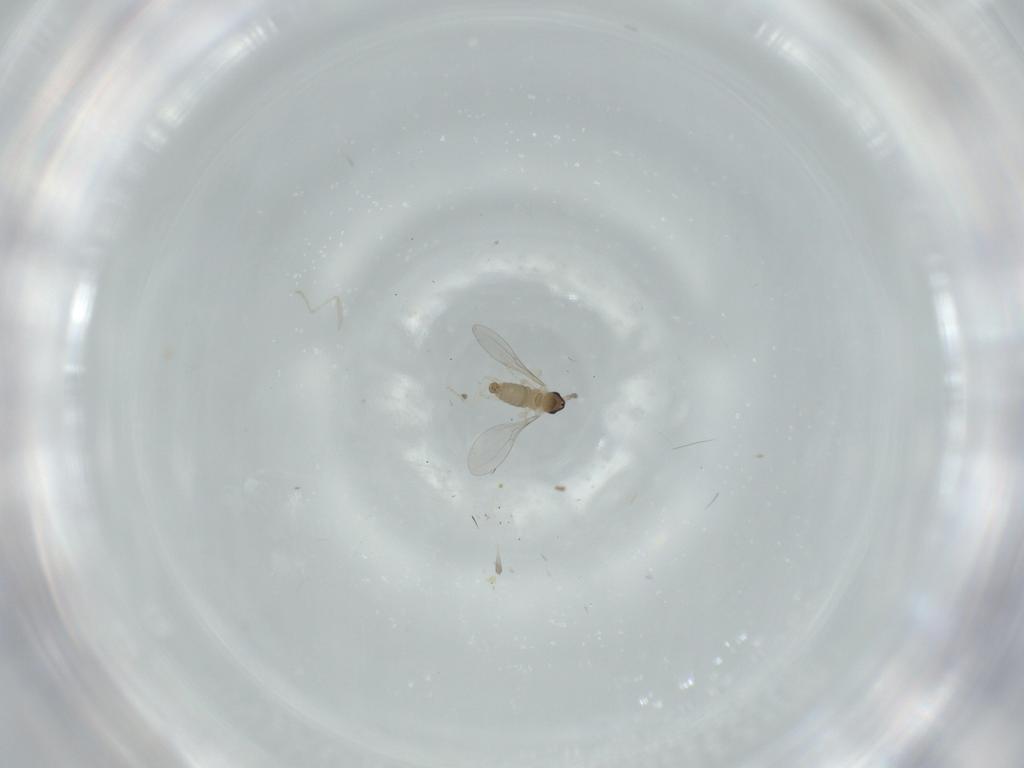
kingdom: Animalia
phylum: Arthropoda
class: Insecta
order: Diptera
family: Cecidomyiidae
